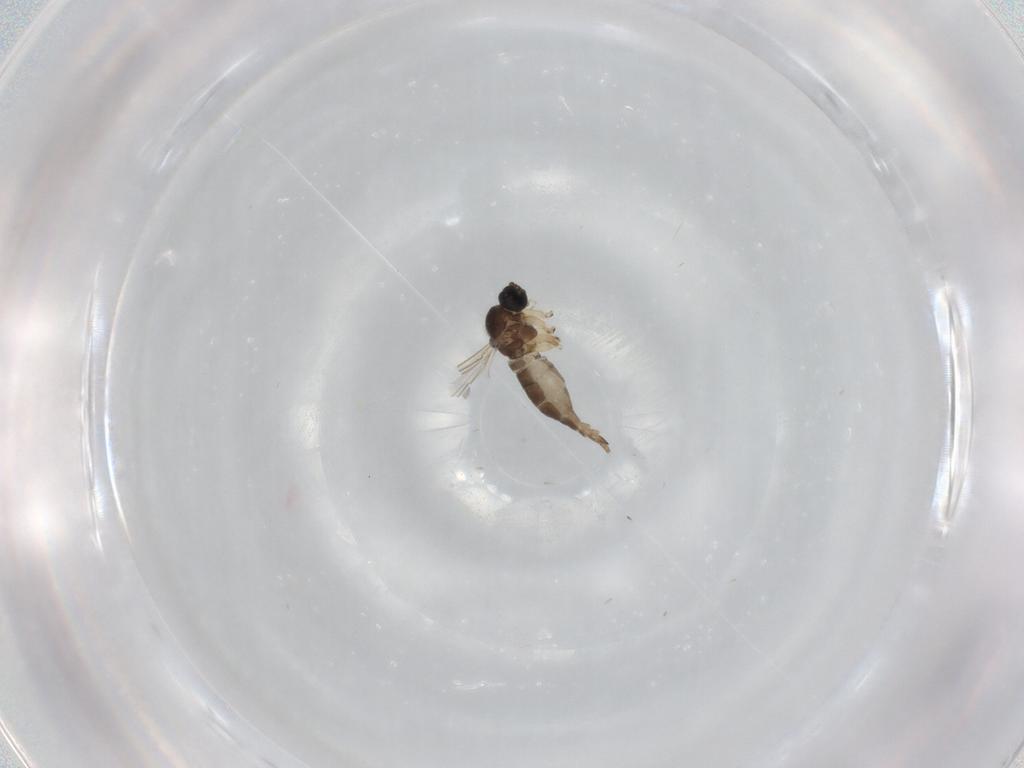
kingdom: Animalia
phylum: Arthropoda
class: Insecta
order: Diptera
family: Sciaridae
